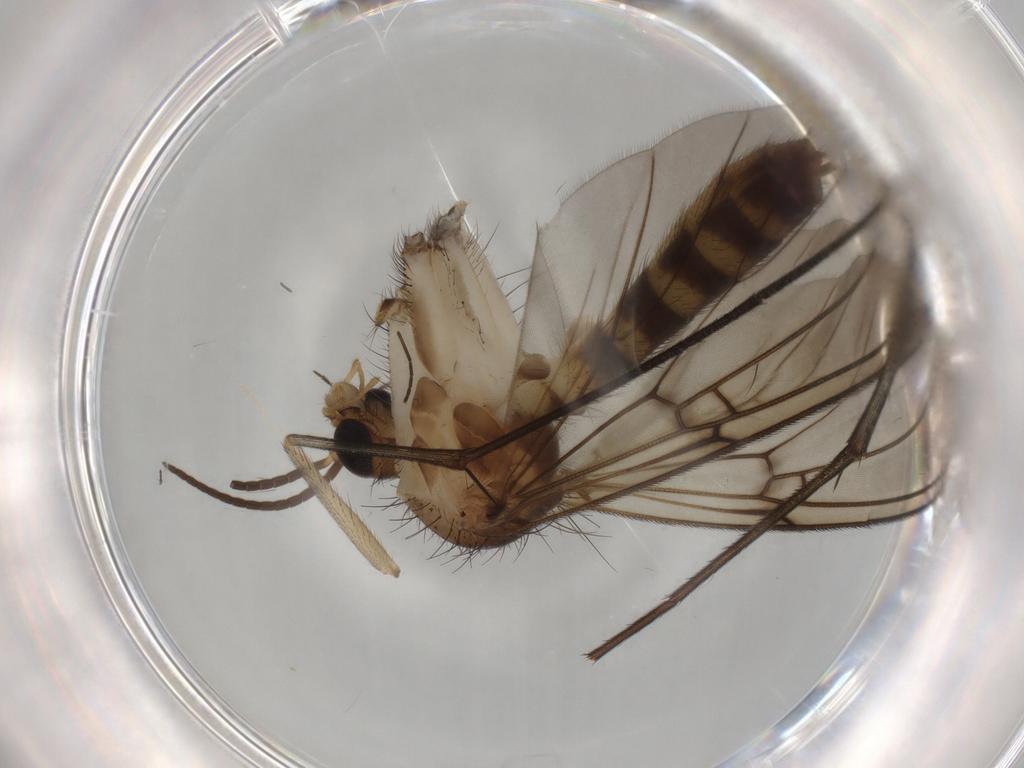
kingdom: Animalia
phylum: Arthropoda
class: Insecta
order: Diptera
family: Mycetophilidae
